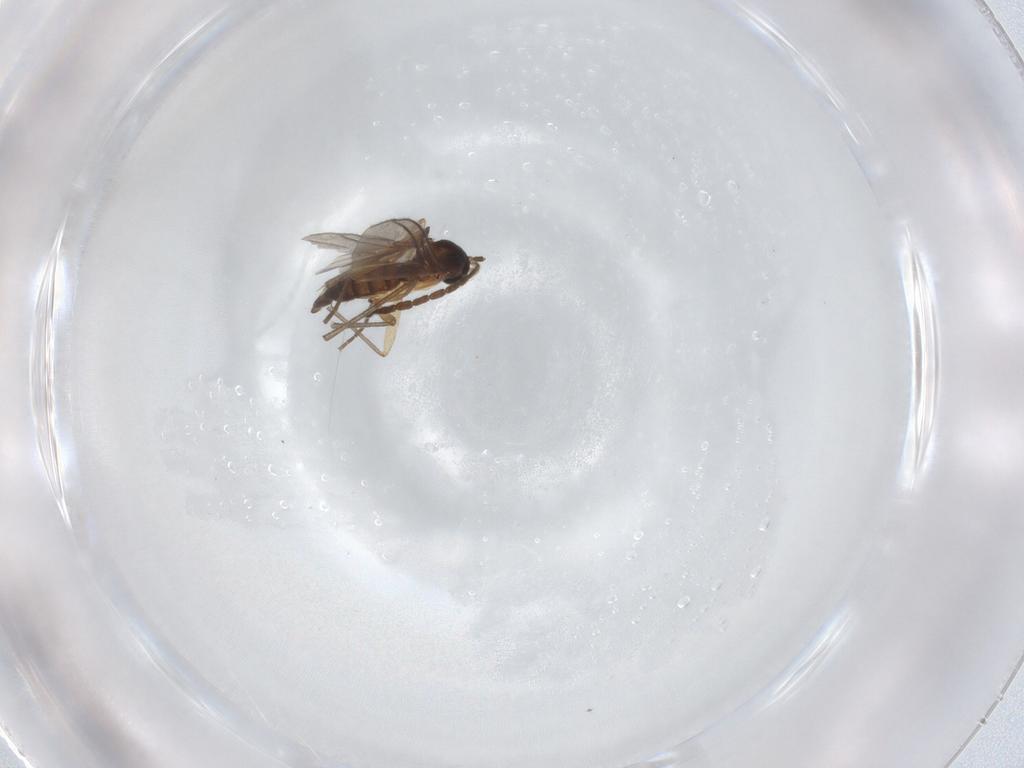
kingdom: Animalia
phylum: Arthropoda
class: Insecta
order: Diptera
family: Sciaridae
